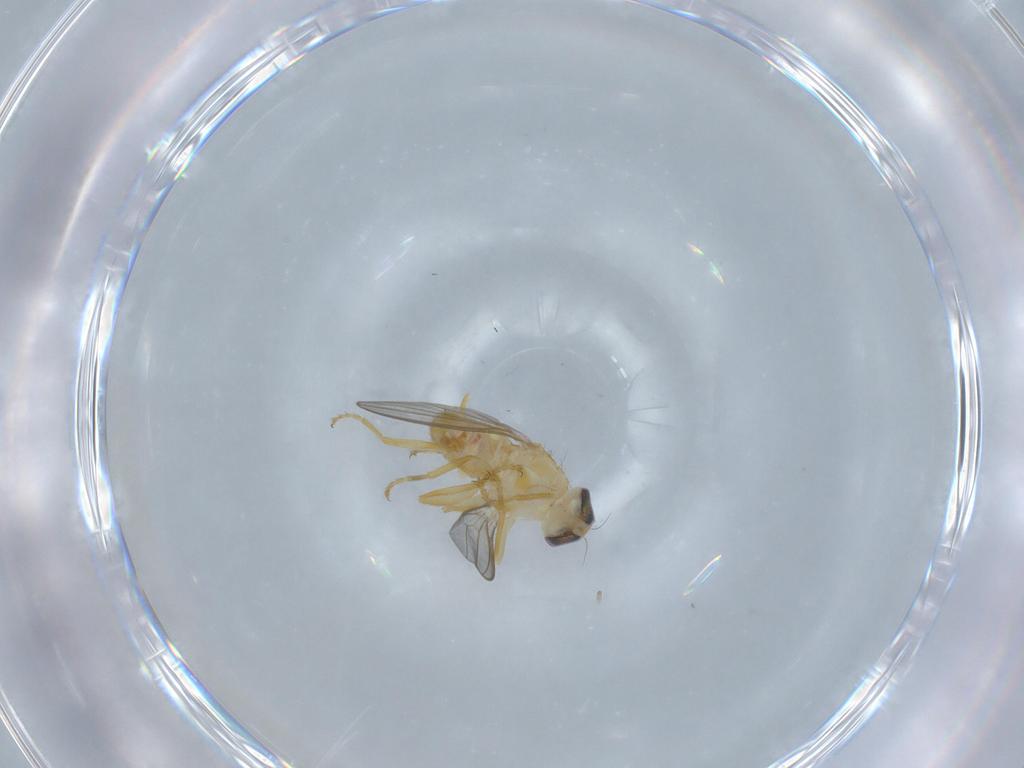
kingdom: Animalia
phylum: Arthropoda
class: Insecta
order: Diptera
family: Chyromyidae
